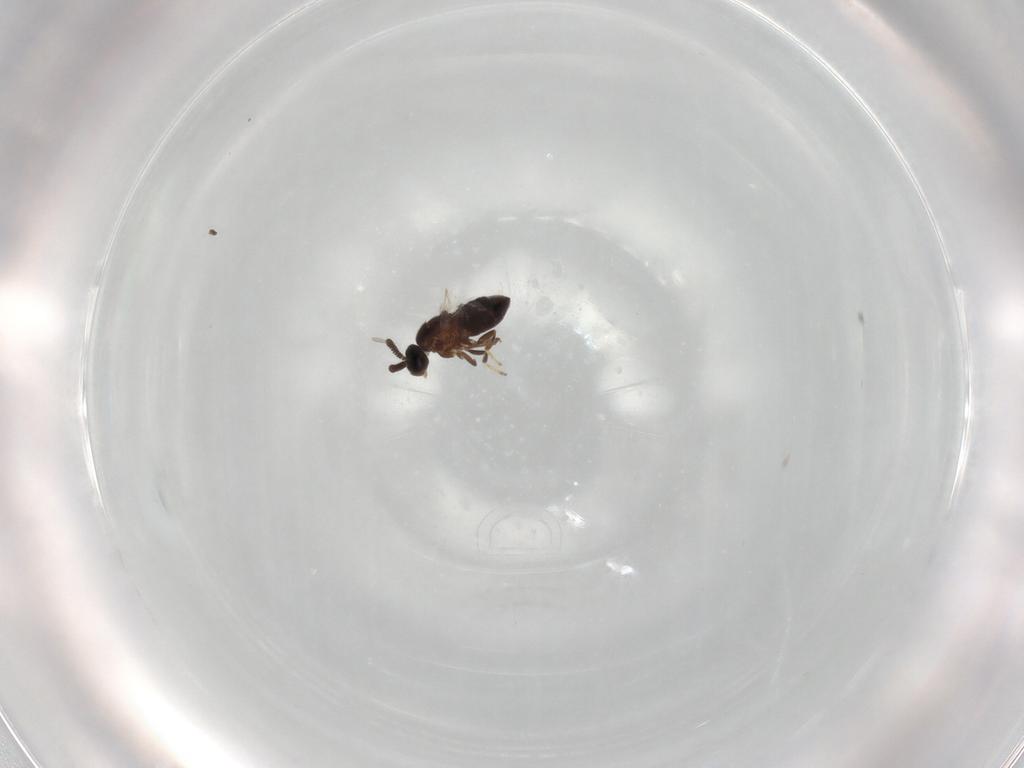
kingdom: Animalia
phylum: Arthropoda
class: Insecta
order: Diptera
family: Scatopsidae
